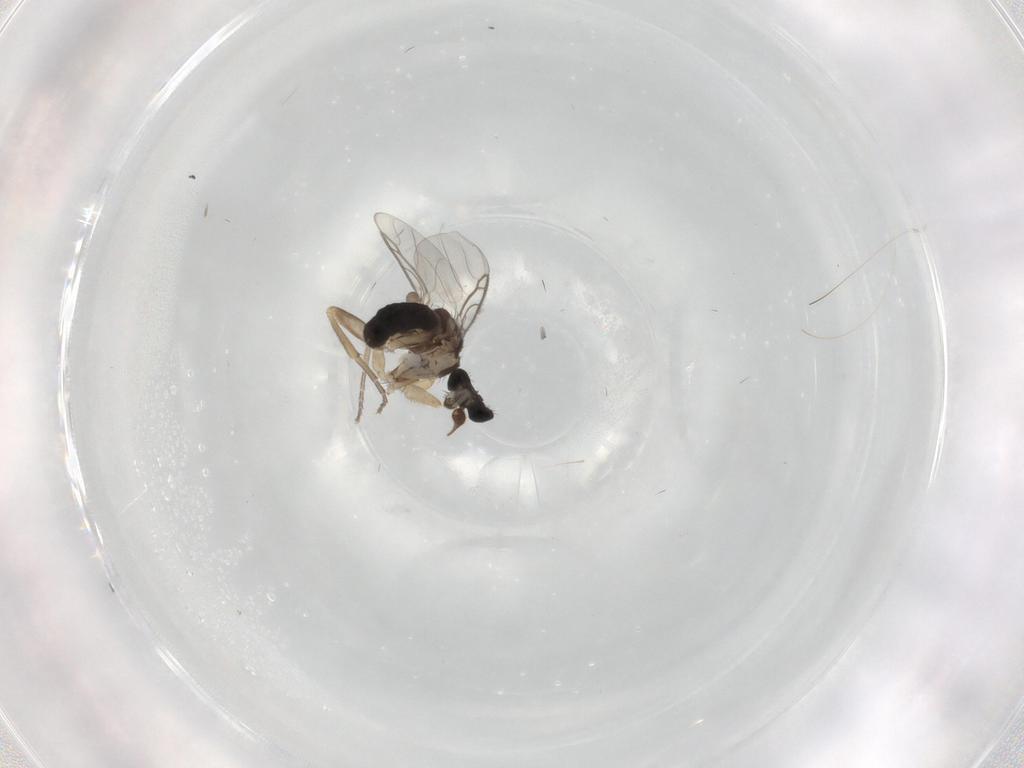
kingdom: Animalia
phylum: Arthropoda
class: Insecta
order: Diptera
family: Phoridae
